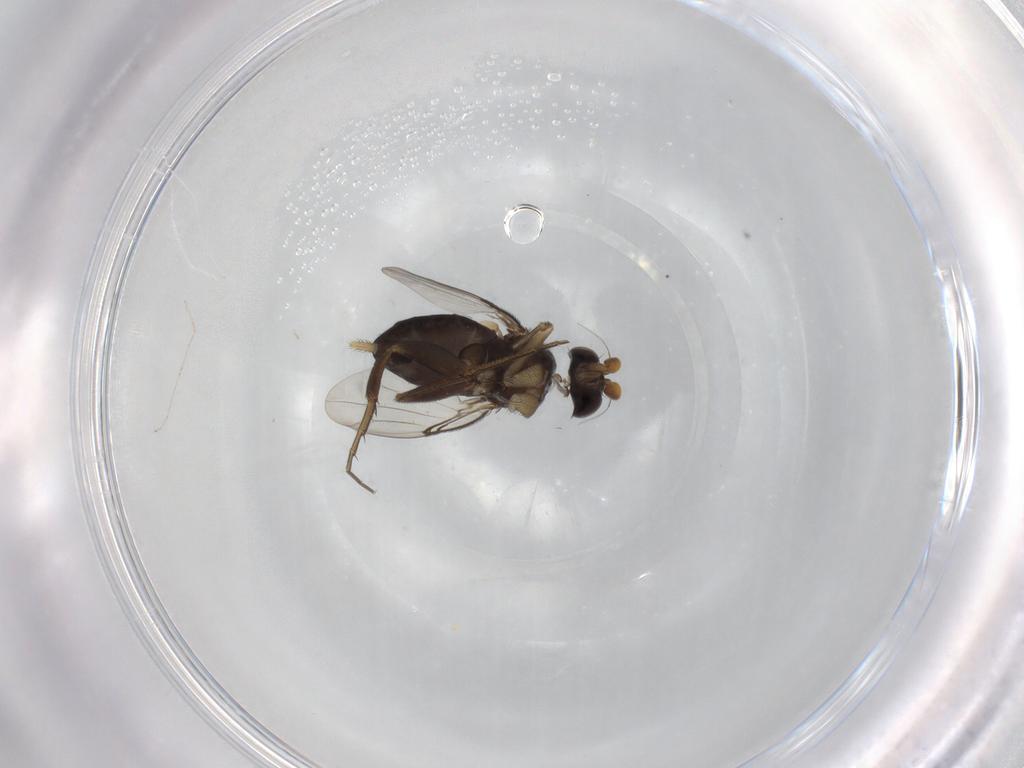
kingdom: Animalia
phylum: Arthropoda
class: Insecta
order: Diptera
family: Phoridae
